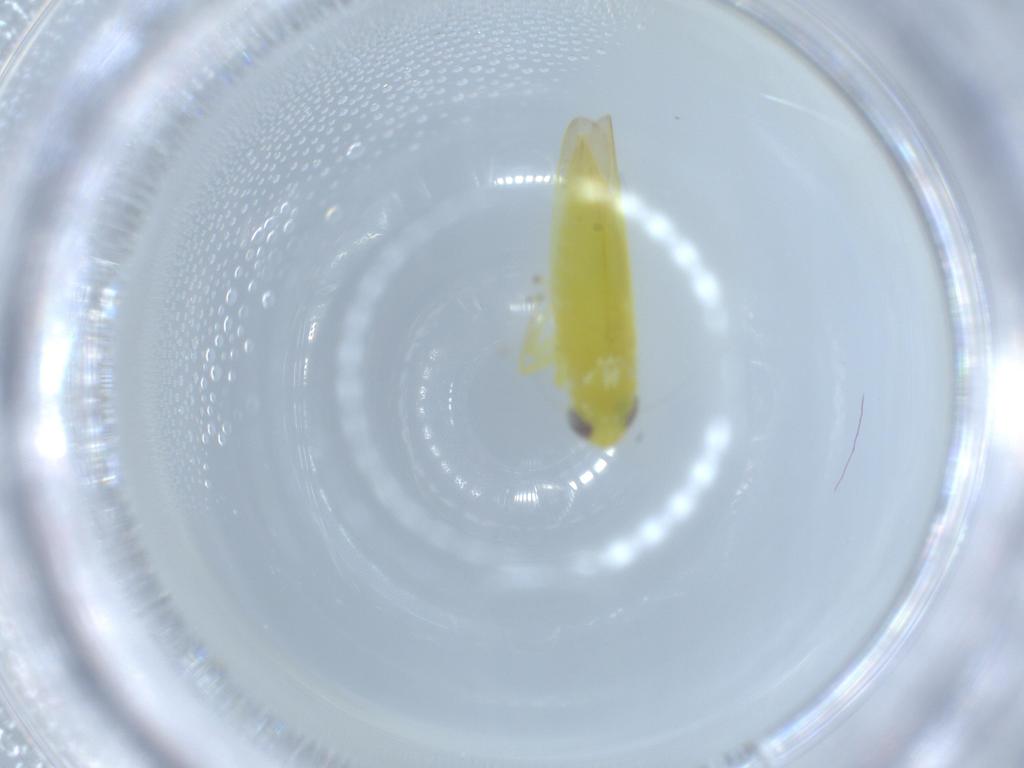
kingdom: Animalia
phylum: Arthropoda
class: Insecta
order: Hemiptera
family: Cicadellidae
